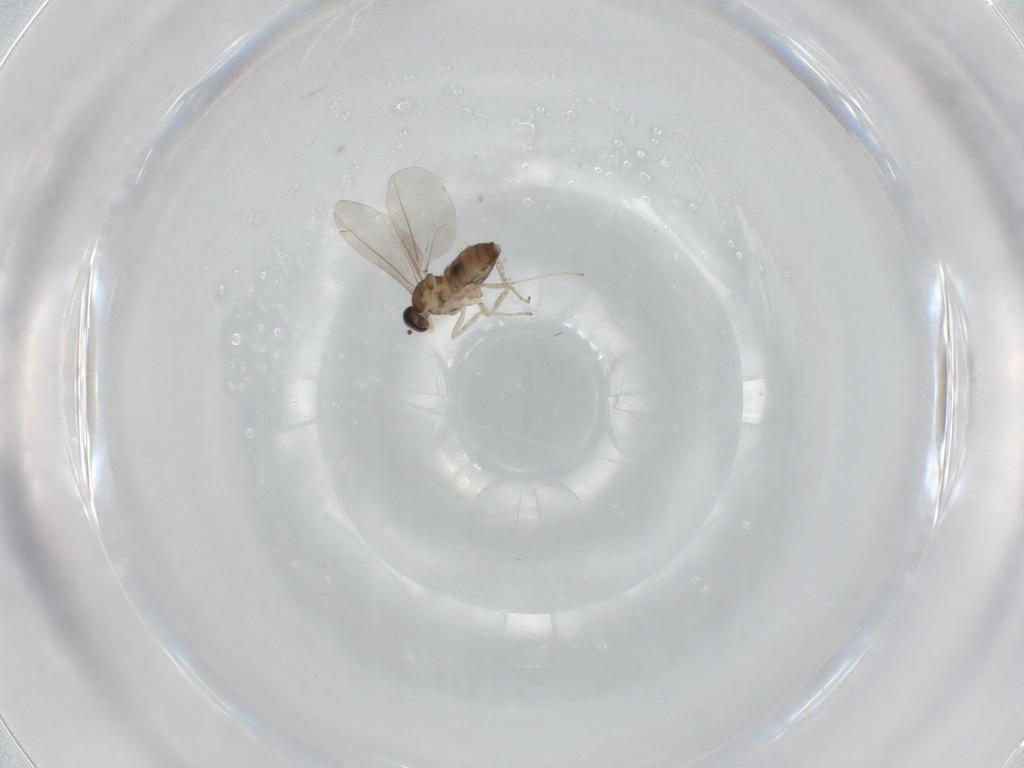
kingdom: Animalia
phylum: Arthropoda
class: Insecta
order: Diptera
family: Cecidomyiidae
